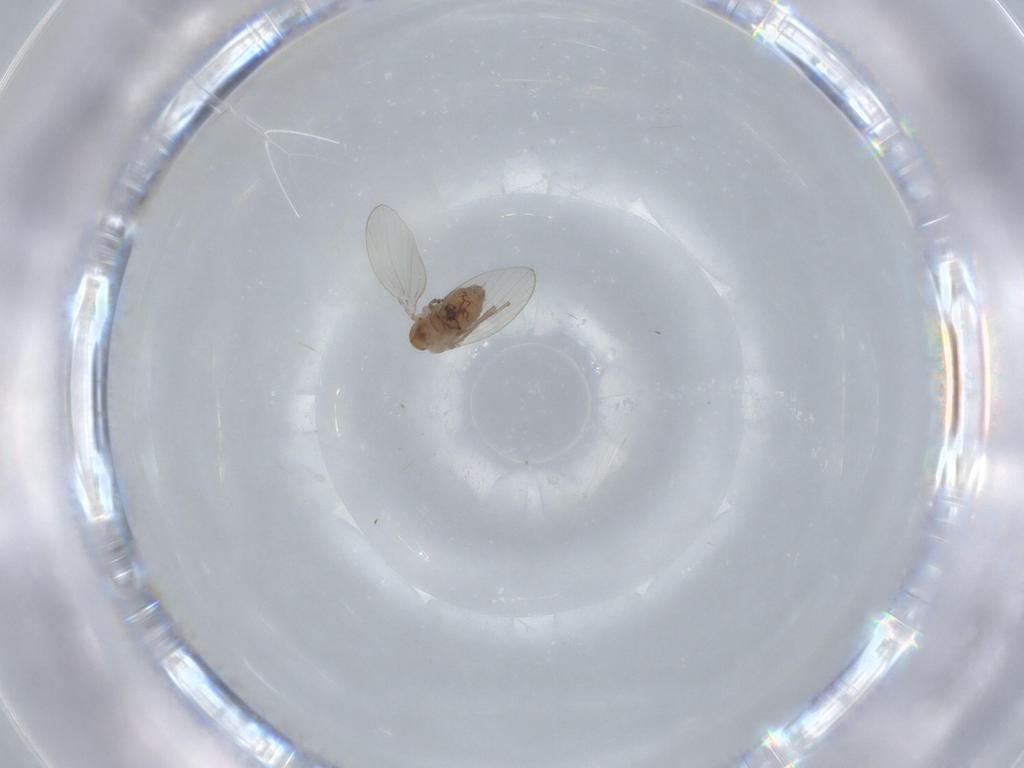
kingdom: Animalia
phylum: Arthropoda
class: Insecta
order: Diptera
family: Psychodidae
